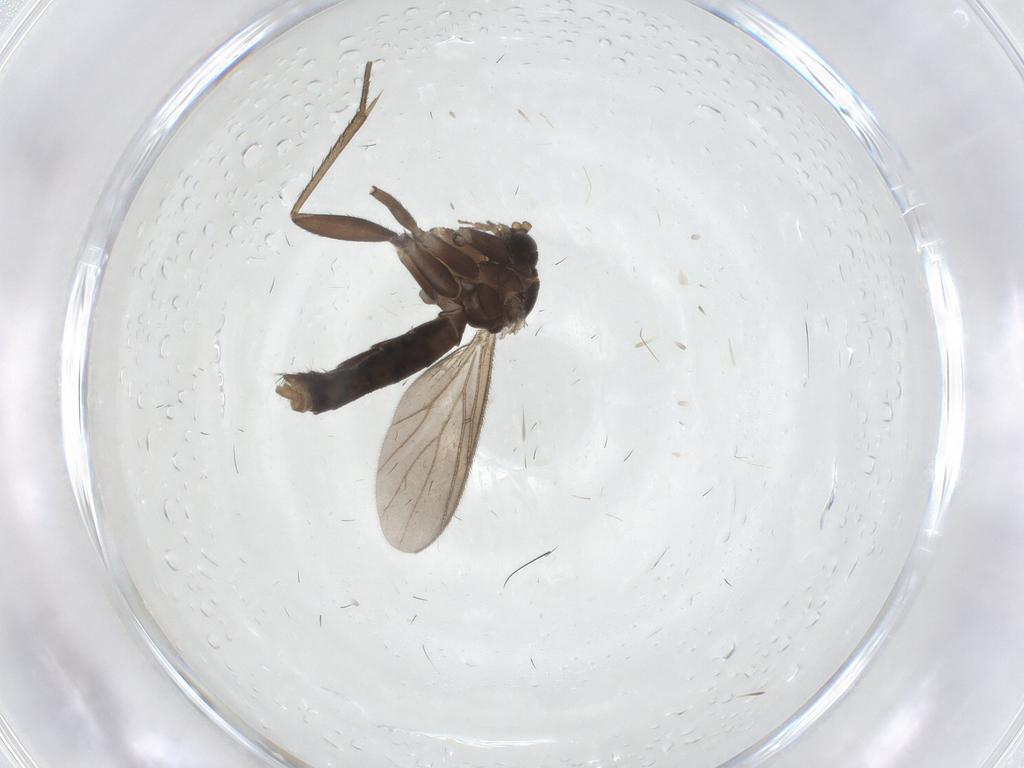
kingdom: Animalia
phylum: Arthropoda
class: Insecta
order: Diptera
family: Mycetophilidae
